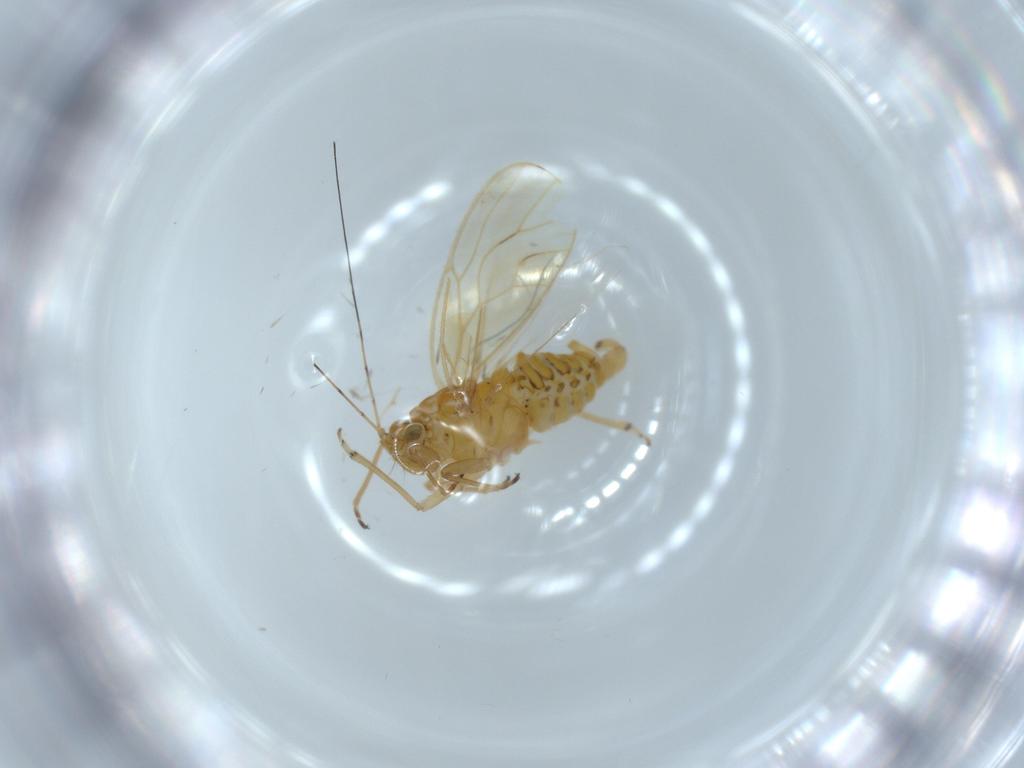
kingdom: Animalia
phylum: Arthropoda
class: Insecta
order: Hemiptera
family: Psyllidae
